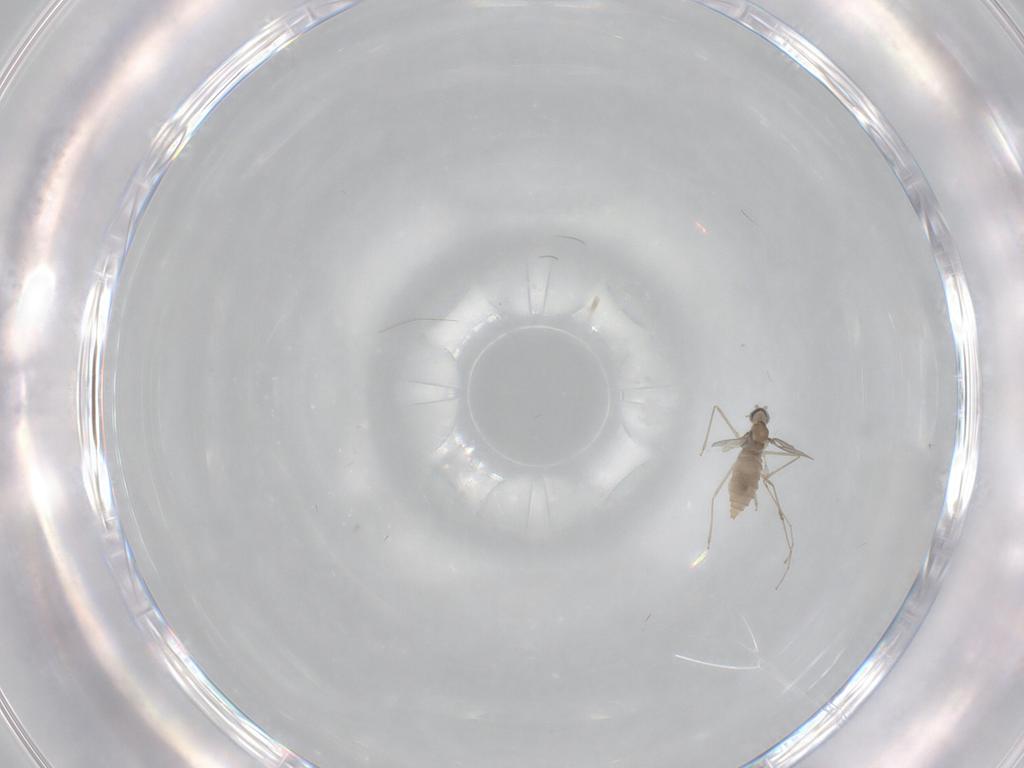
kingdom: Animalia
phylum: Arthropoda
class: Insecta
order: Diptera
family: Cecidomyiidae
